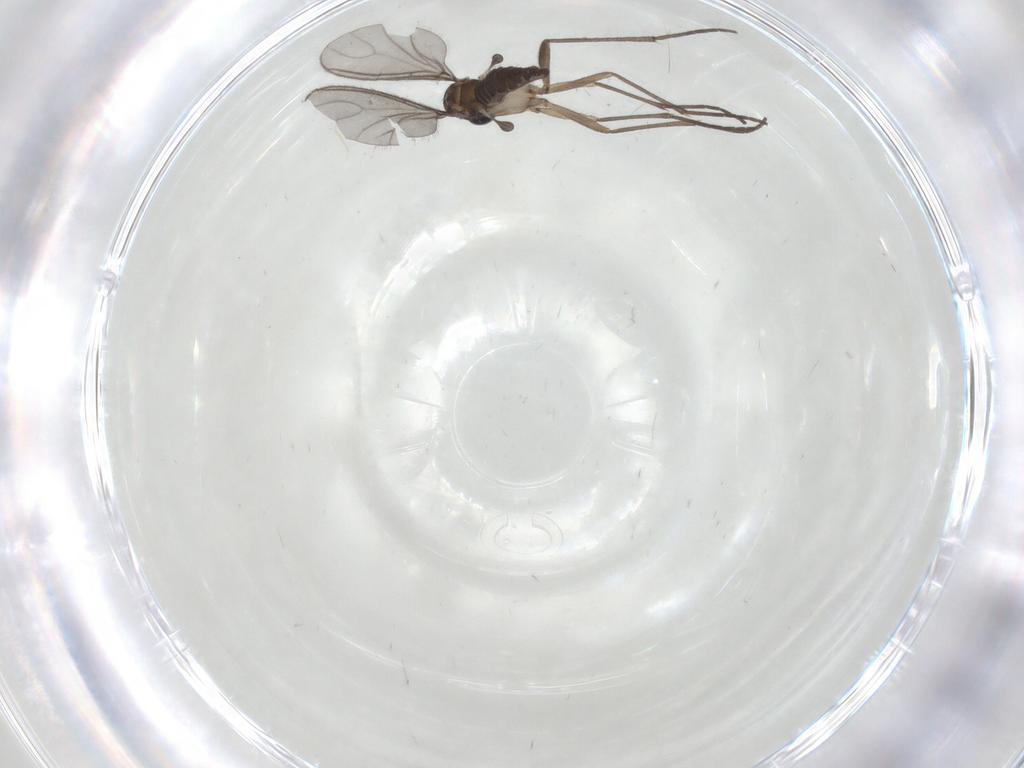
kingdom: Animalia
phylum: Arthropoda
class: Insecta
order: Diptera
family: Sciaridae
